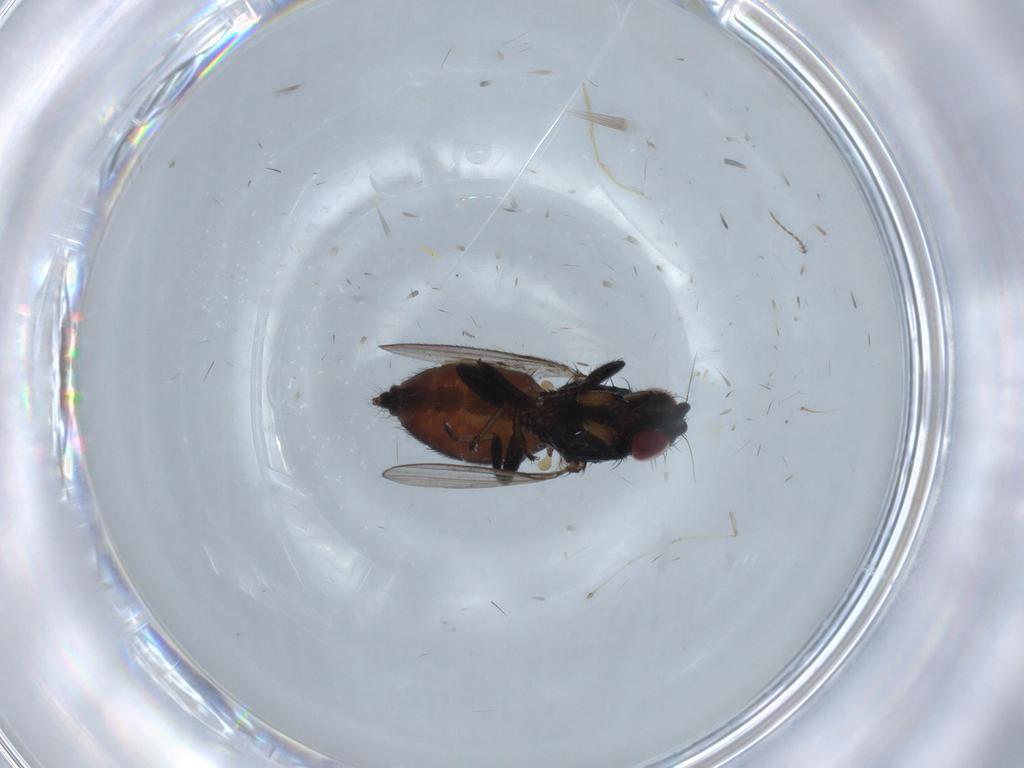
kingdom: Animalia
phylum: Arthropoda
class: Insecta
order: Diptera
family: Milichiidae
